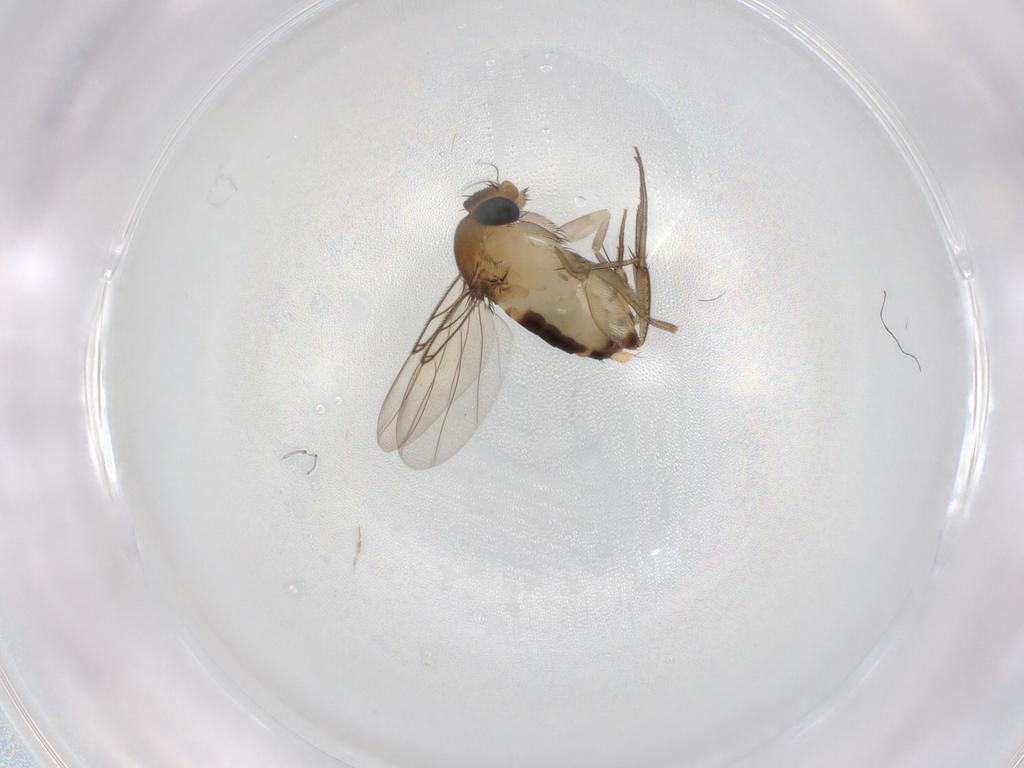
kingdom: Animalia
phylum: Arthropoda
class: Insecta
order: Diptera
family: Phoridae
